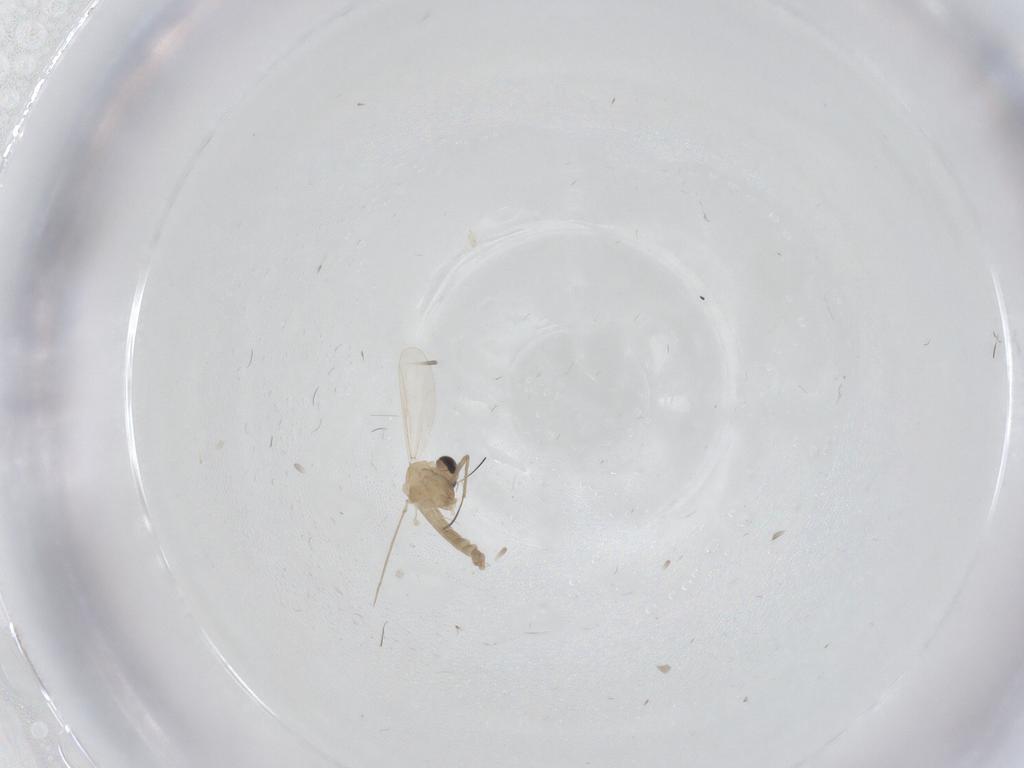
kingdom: Animalia
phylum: Arthropoda
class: Insecta
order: Diptera
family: Chironomidae
